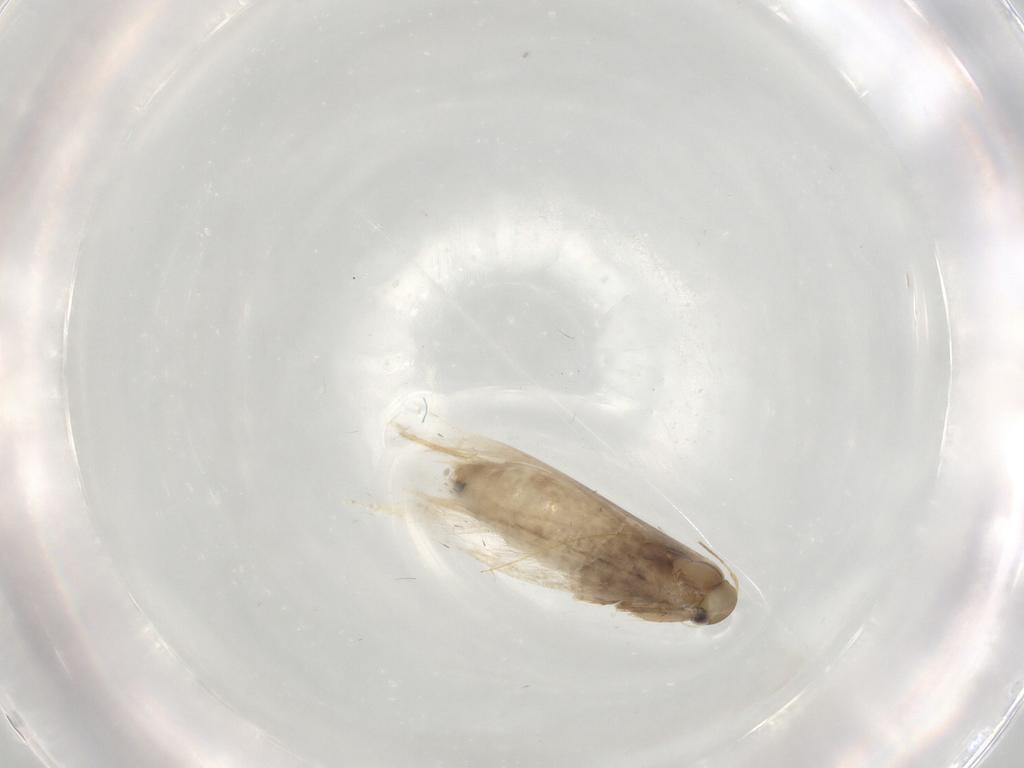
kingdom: Animalia
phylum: Arthropoda
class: Insecta
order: Lepidoptera
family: Gracillariidae
